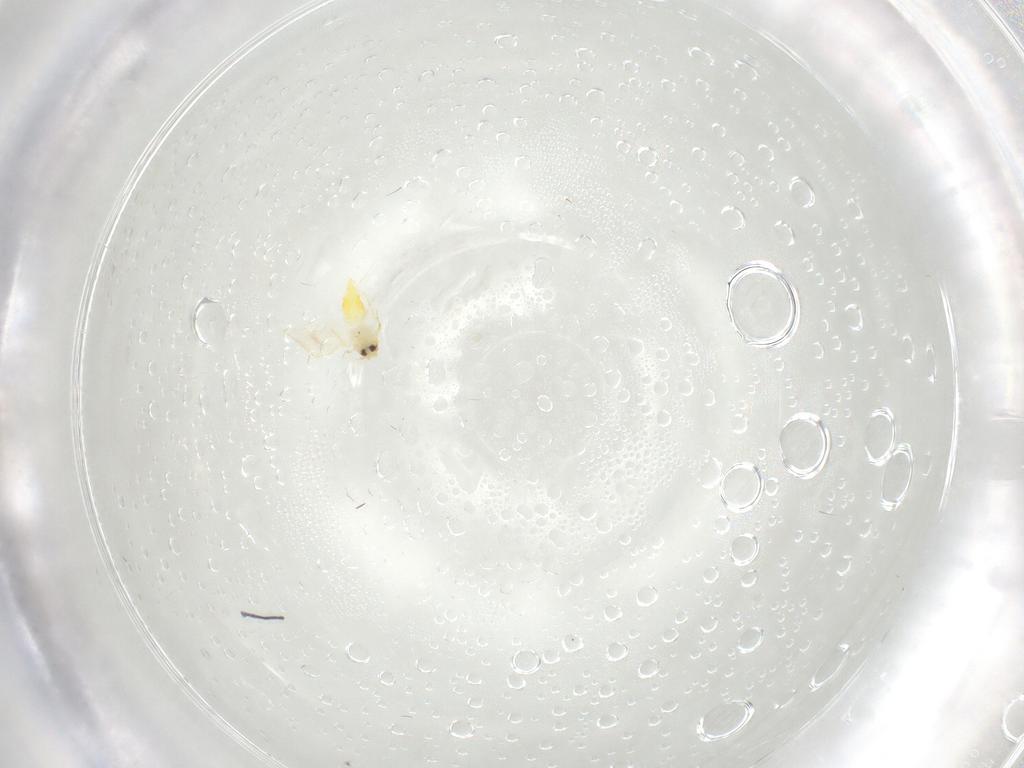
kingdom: Animalia
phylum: Arthropoda
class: Insecta
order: Hemiptera
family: Aleyrodidae
